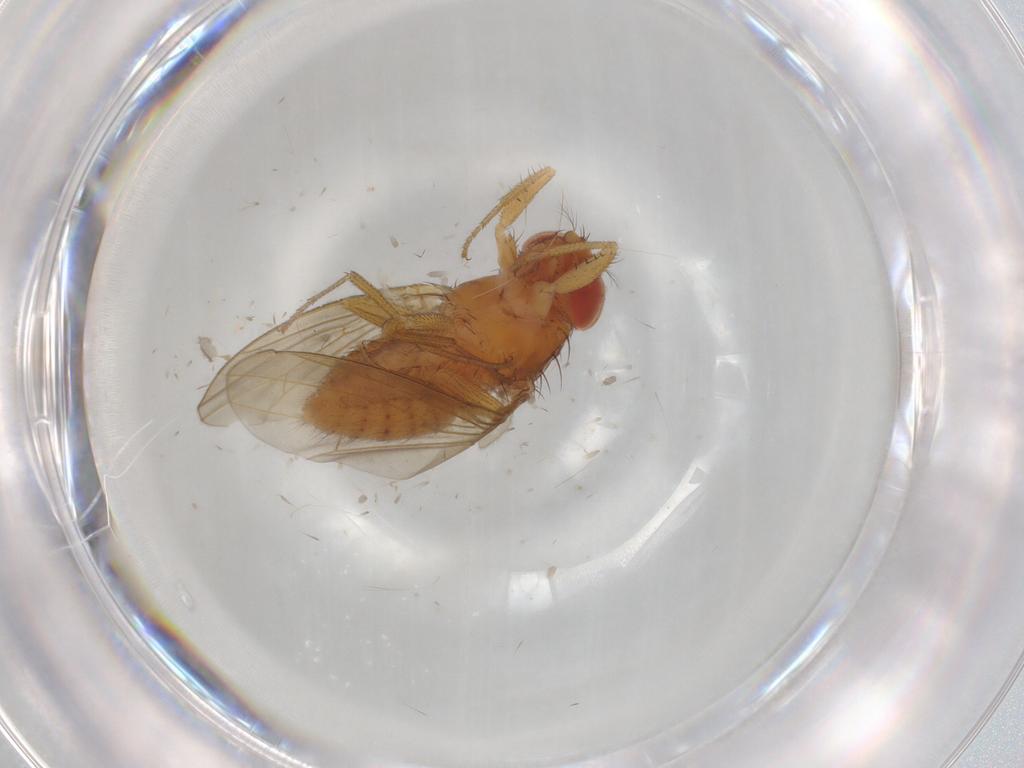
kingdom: Animalia
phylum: Arthropoda
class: Insecta
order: Diptera
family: Drosophilidae
